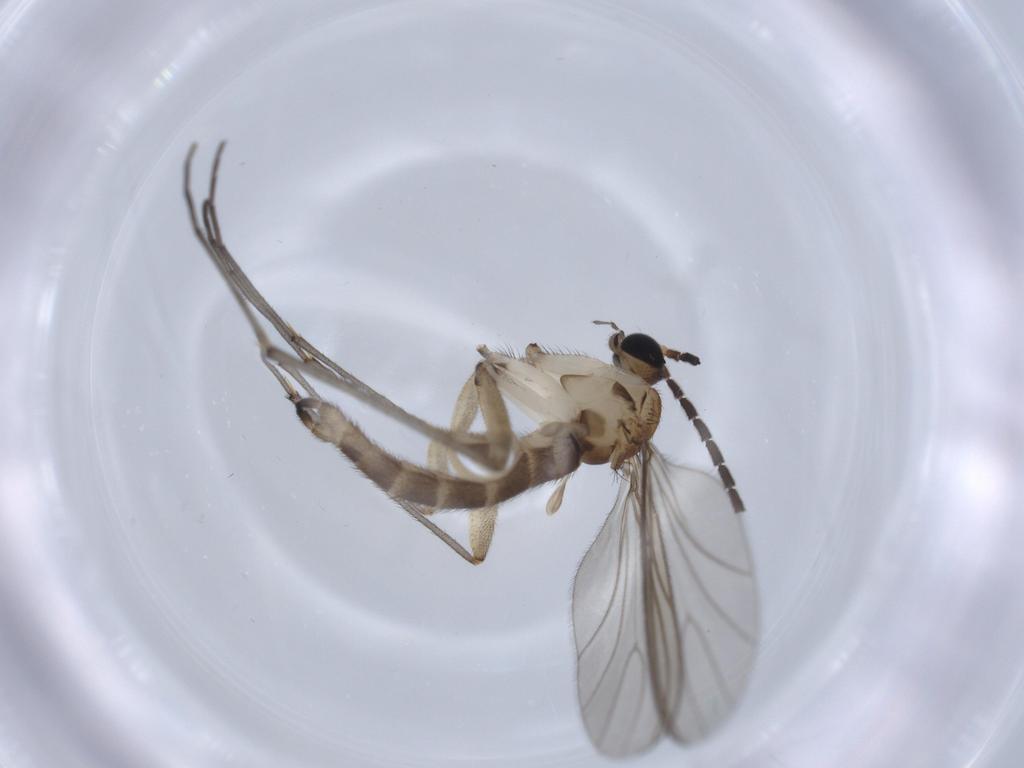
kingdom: Animalia
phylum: Arthropoda
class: Insecta
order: Diptera
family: Sciaridae
